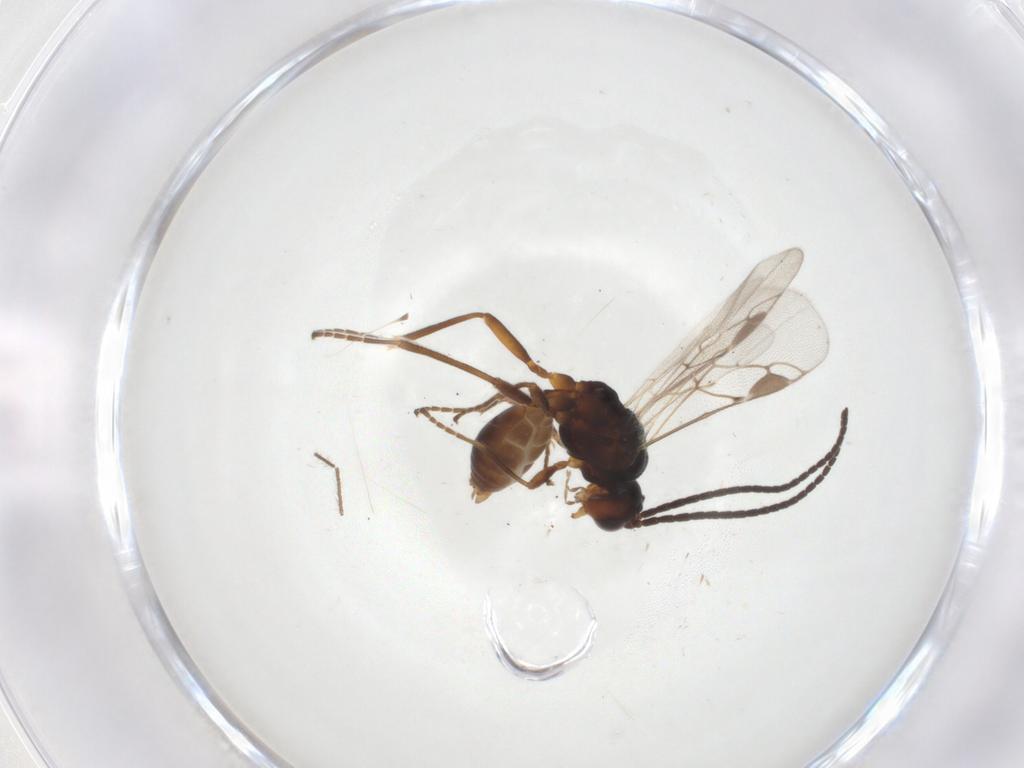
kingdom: Animalia
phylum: Arthropoda
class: Insecta
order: Hymenoptera
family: Braconidae
